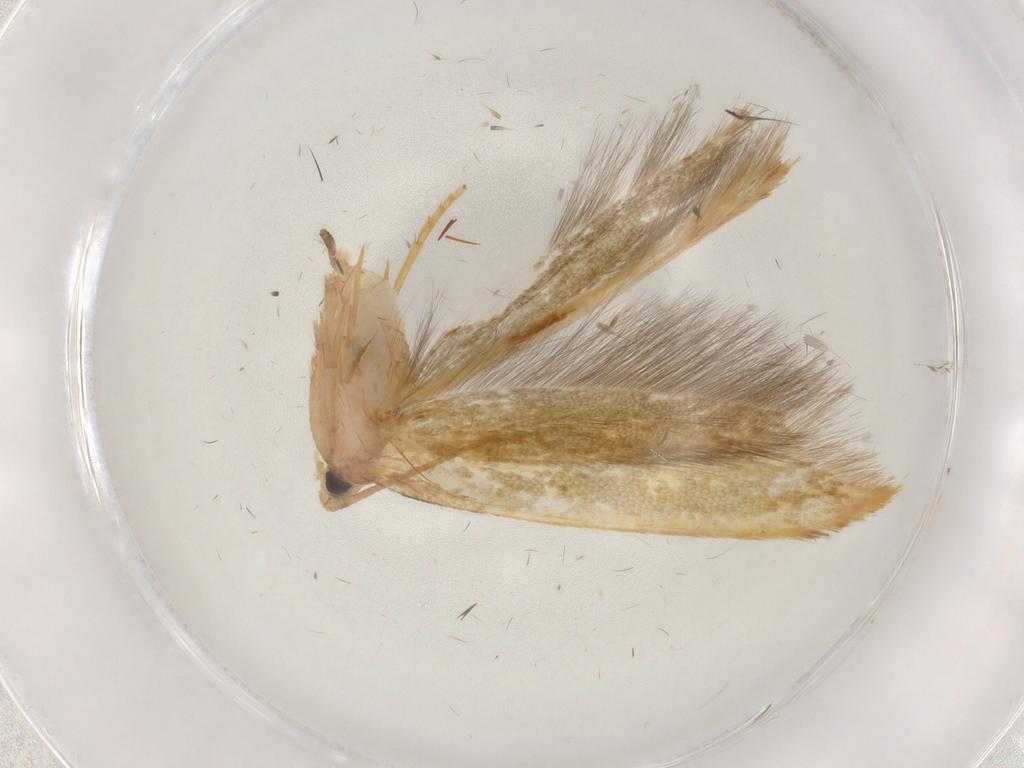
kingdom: Animalia
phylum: Arthropoda
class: Insecta
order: Lepidoptera
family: Tineidae
